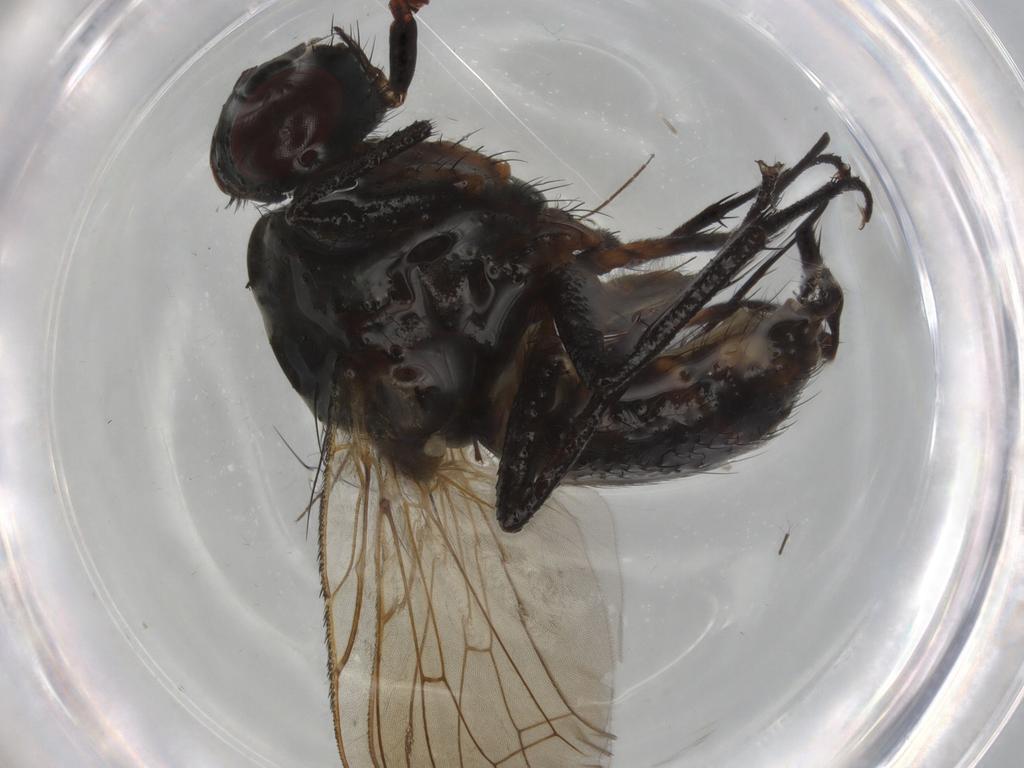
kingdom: Animalia
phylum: Arthropoda
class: Insecta
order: Diptera
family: Anthomyiidae
